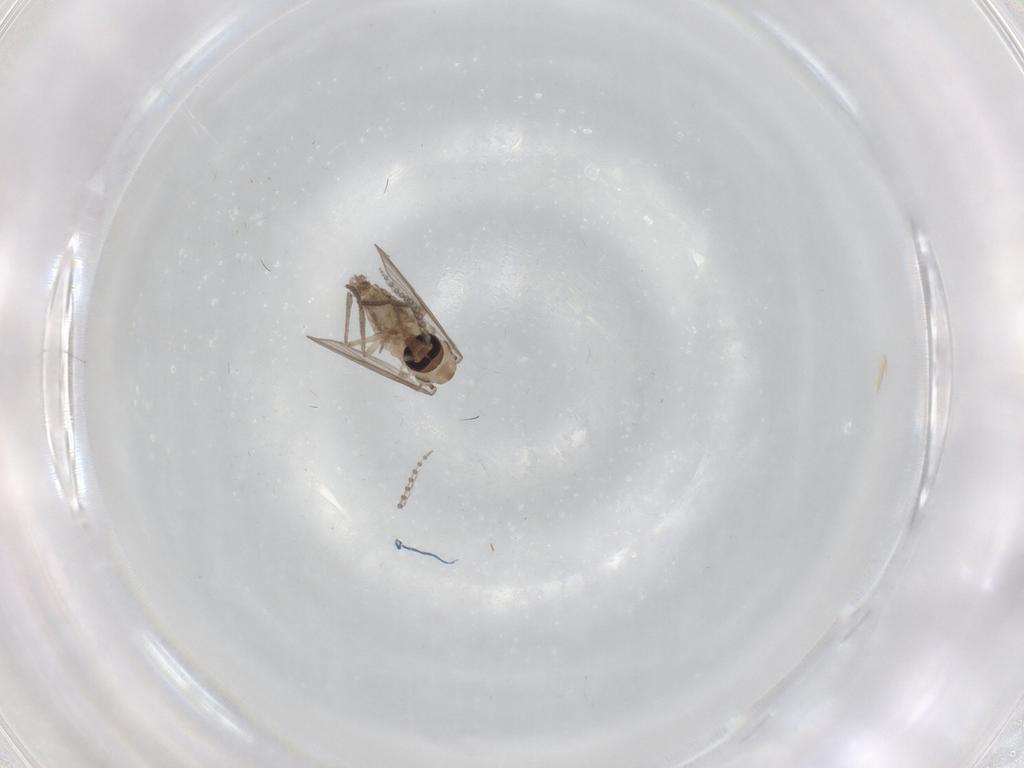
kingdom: Animalia
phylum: Arthropoda
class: Insecta
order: Diptera
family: Psychodidae
